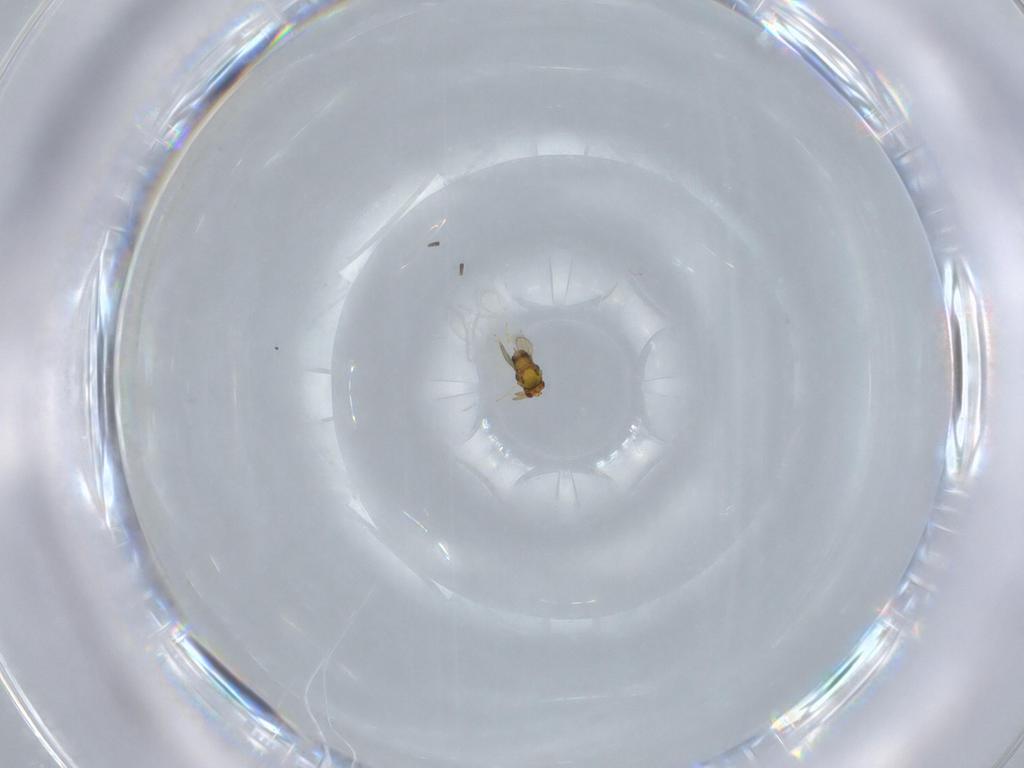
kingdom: Animalia
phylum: Arthropoda
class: Insecta
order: Hymenoptera
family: Aphelinidae
